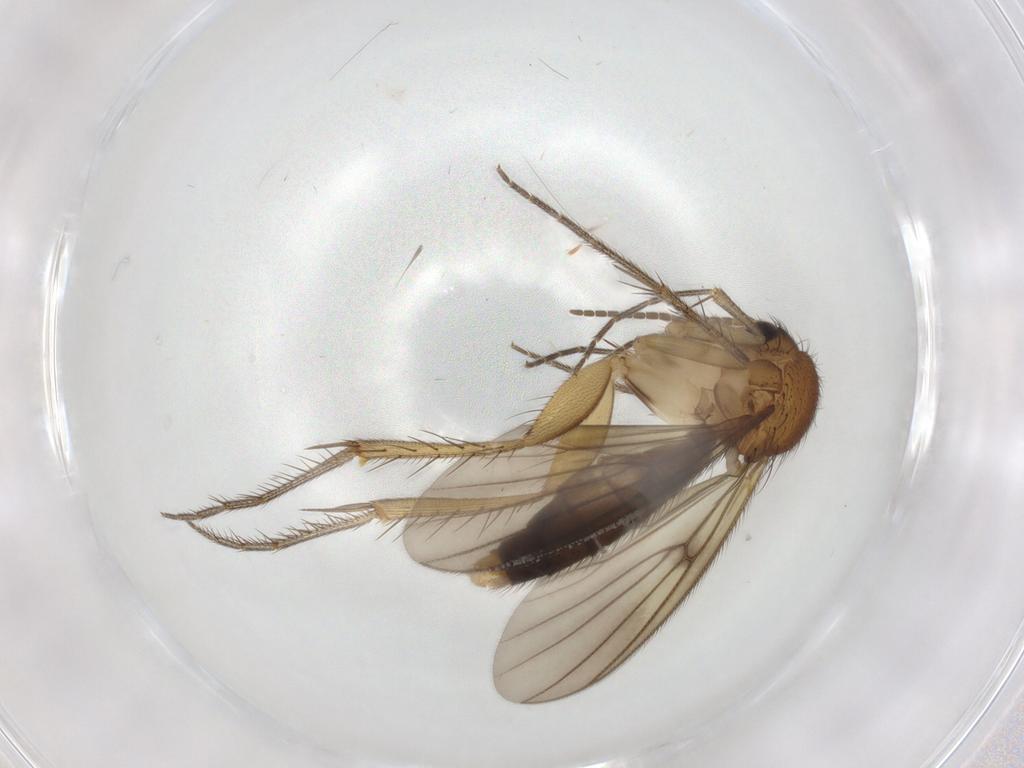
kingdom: Animalia
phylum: Arthropoda
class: Insecta
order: Diptera
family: Mycetophilidae
